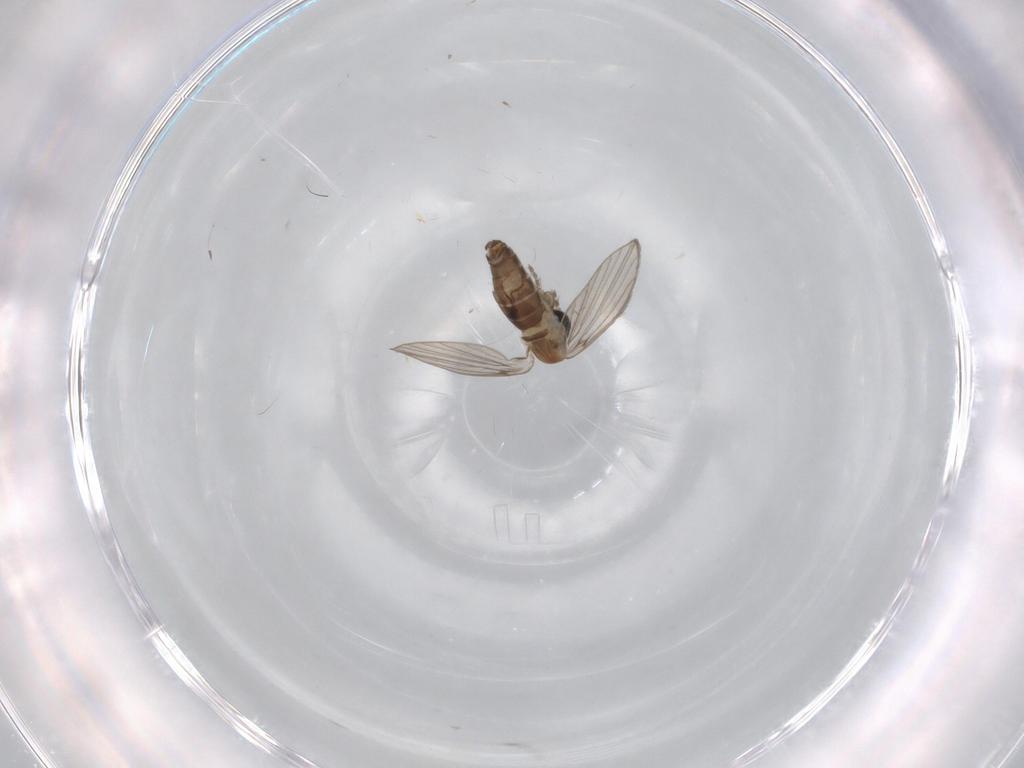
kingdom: Animalia
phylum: Arthropoda
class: Insecta
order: Diptera
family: Psychodidae
